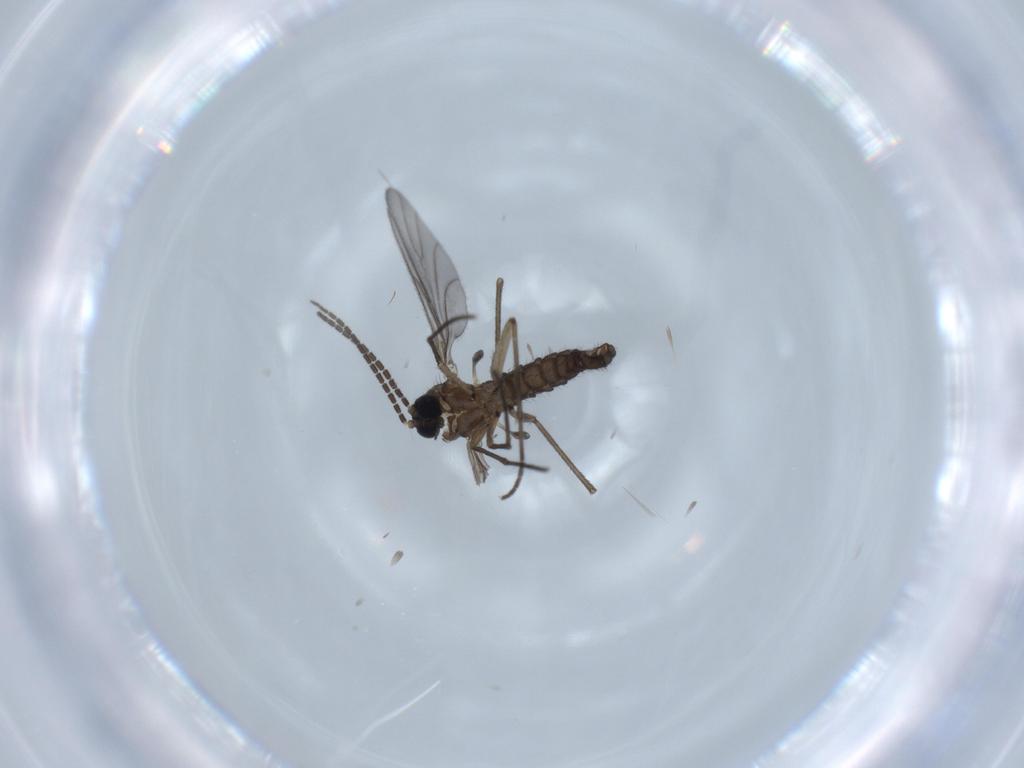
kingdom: Animalia
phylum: Arthropoda
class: Insecta
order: Diptera
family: Sciaridae
